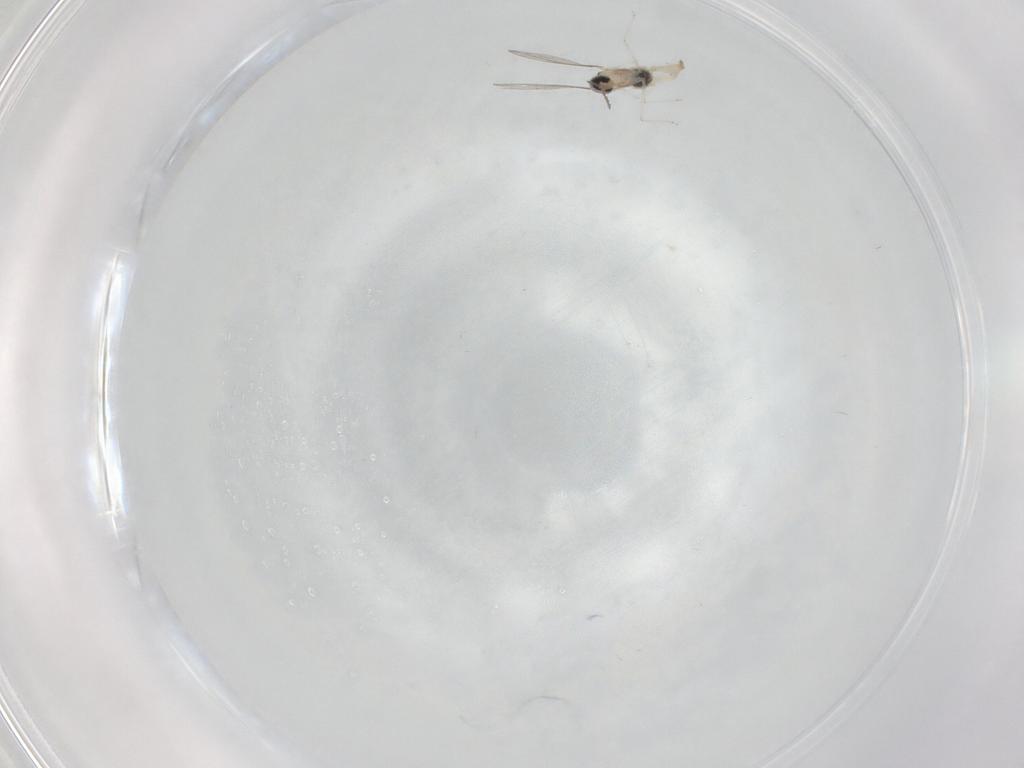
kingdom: Animalia
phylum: Arthropoda
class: Insecta
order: Diptera
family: Cecidomyiidae
